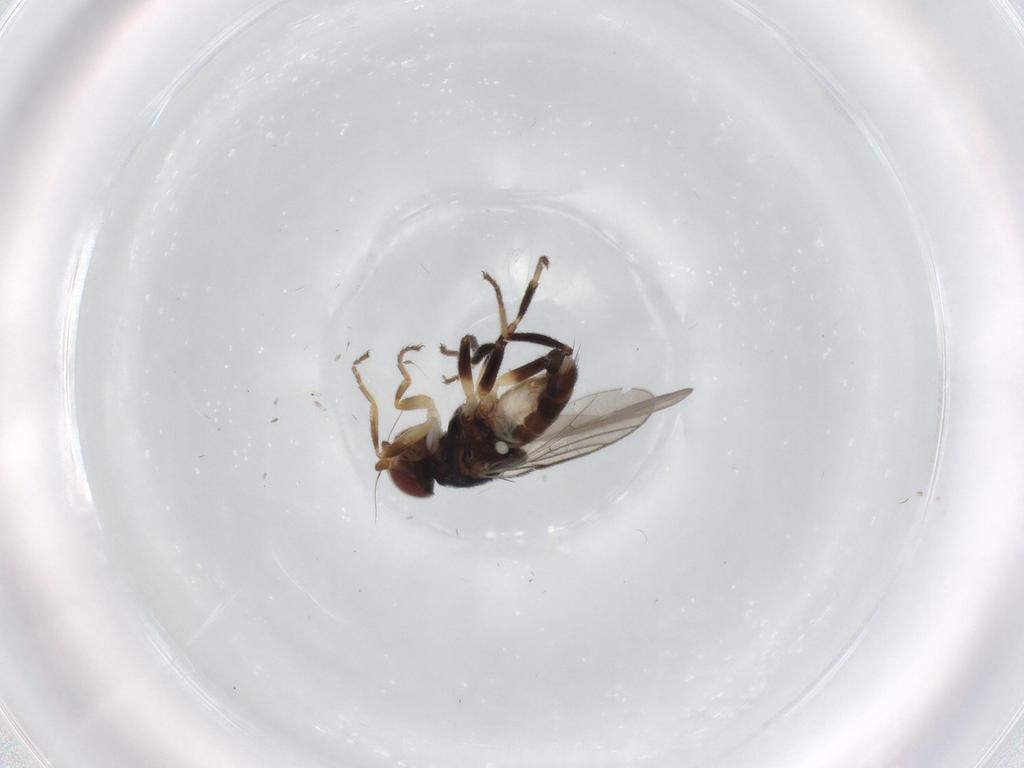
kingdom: Animalia
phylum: Arthropoda
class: Insecta
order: Diptera
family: Chloropidae
